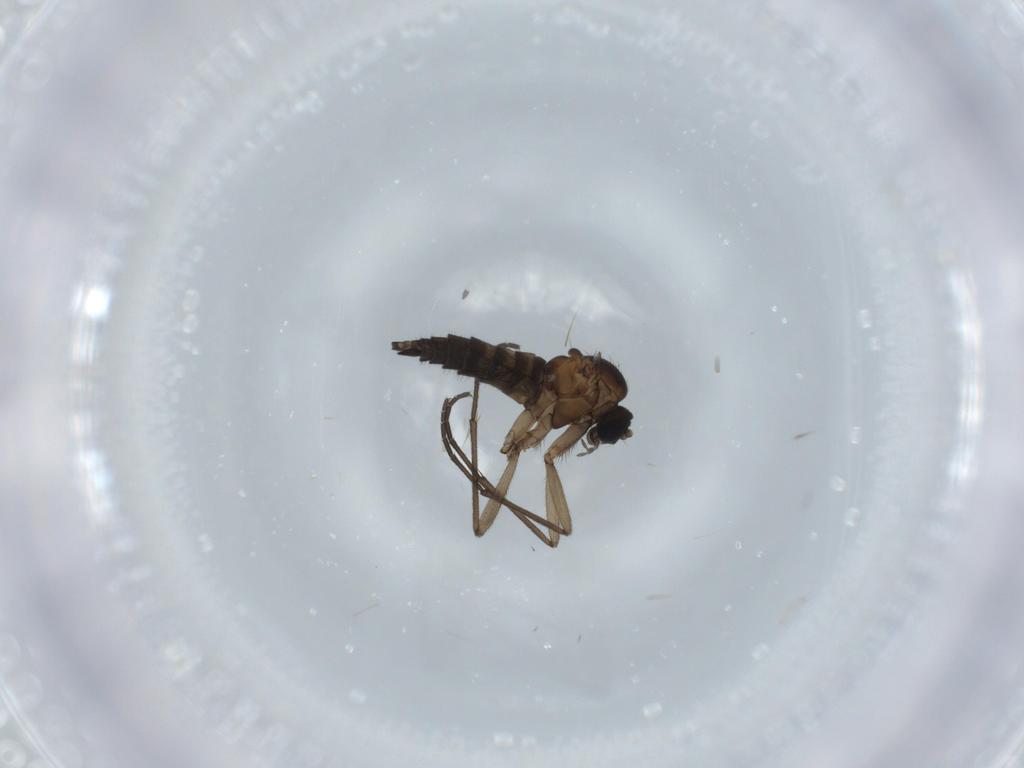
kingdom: Animalia
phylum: Arthropoda
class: Insecta
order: Diptera
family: Sciaridae
